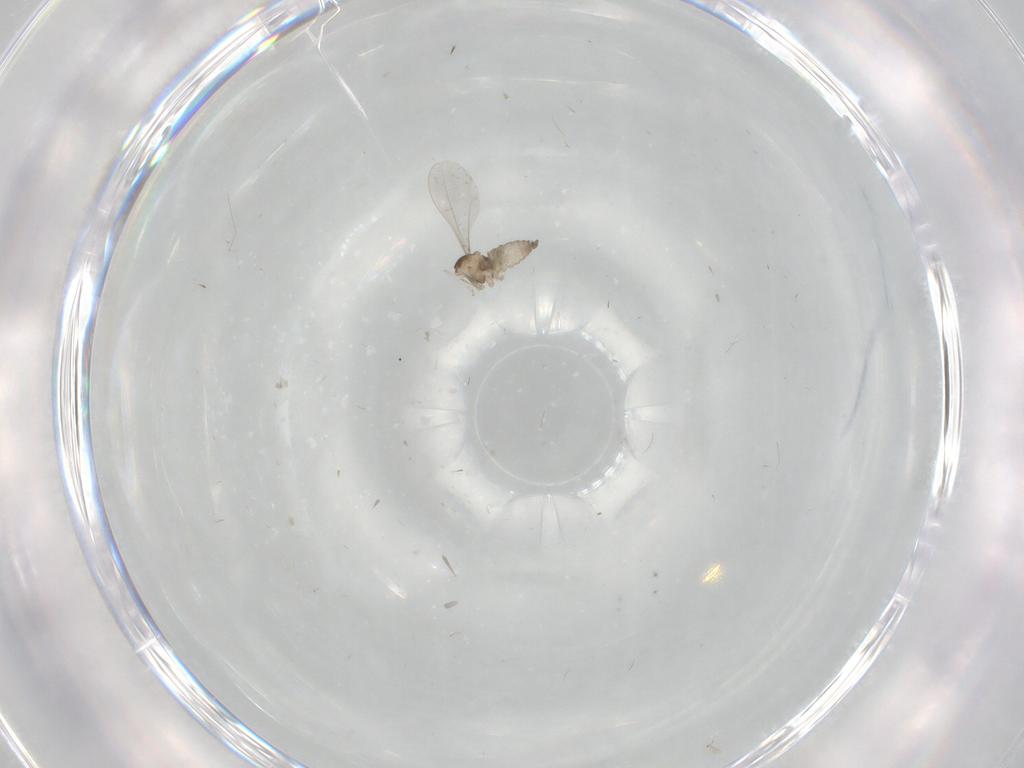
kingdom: Animalia
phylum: Arthropoda
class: Insecta
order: Diptera
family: Cecidomyiidae
